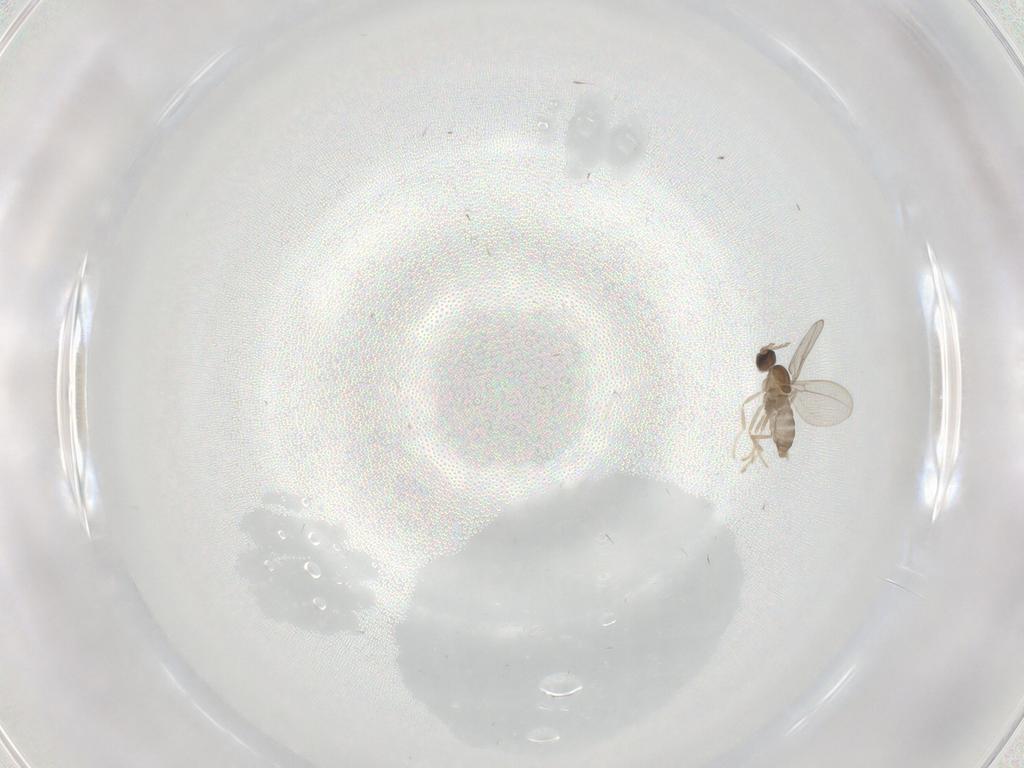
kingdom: Animalia
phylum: Arthropoda
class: Insecta
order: Diptera
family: Cecidomyiidae
